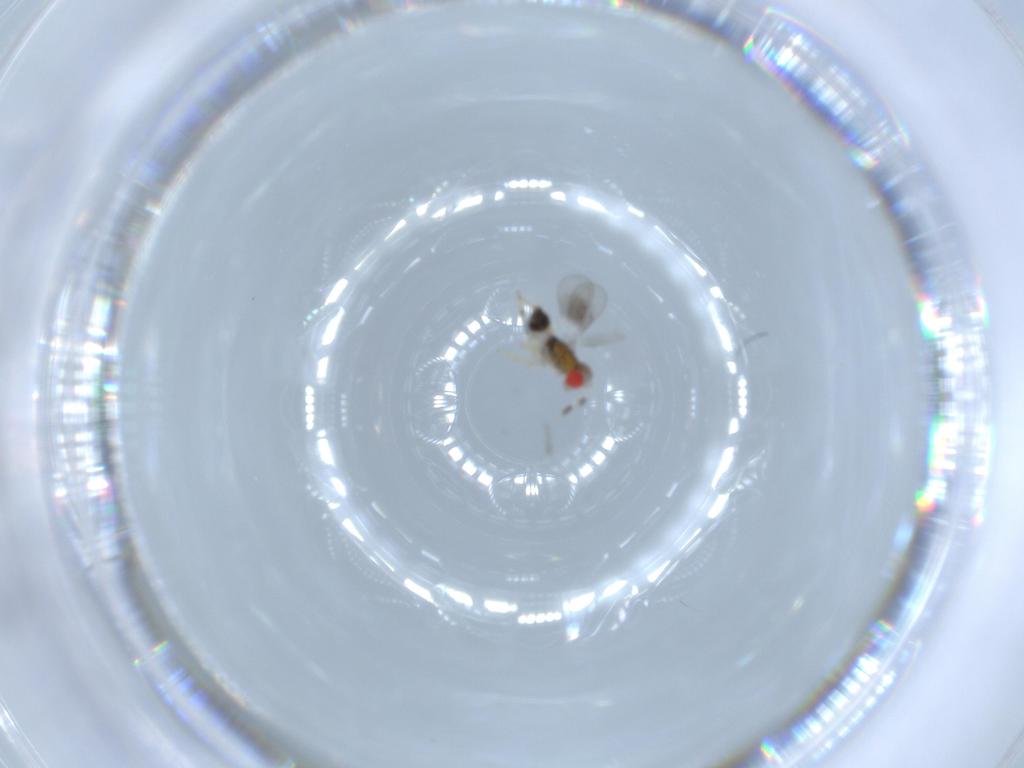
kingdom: Animalia
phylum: Arthropoda
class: Insecta
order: Hymenoptera
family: Aphelinidae
